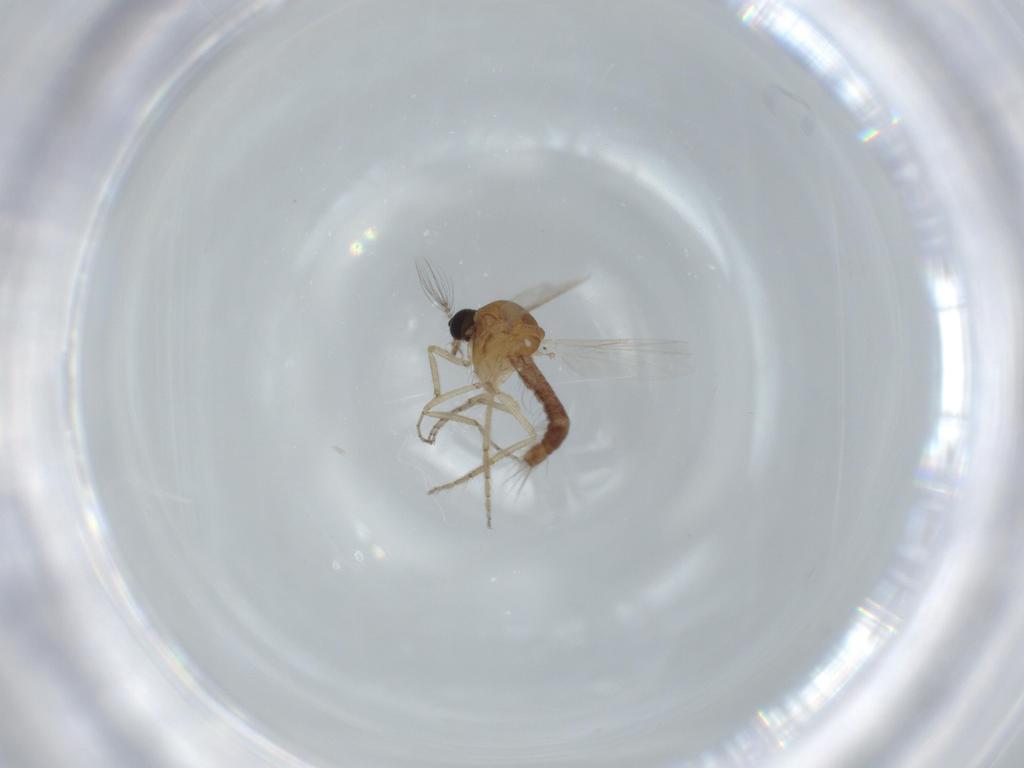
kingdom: Animalia
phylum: Arthropoda
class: Insecta
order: Diptera
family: Ceratopogonidae
